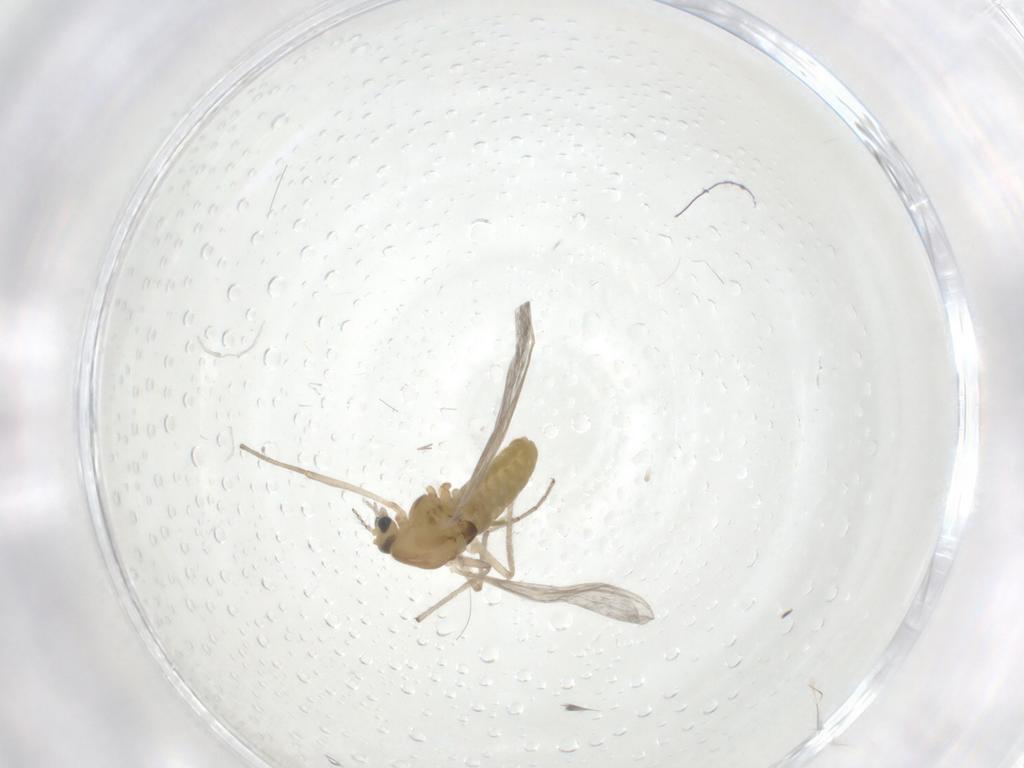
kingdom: Animalia
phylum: Arthropoda
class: Insecta
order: Diptera
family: Chironomidae
